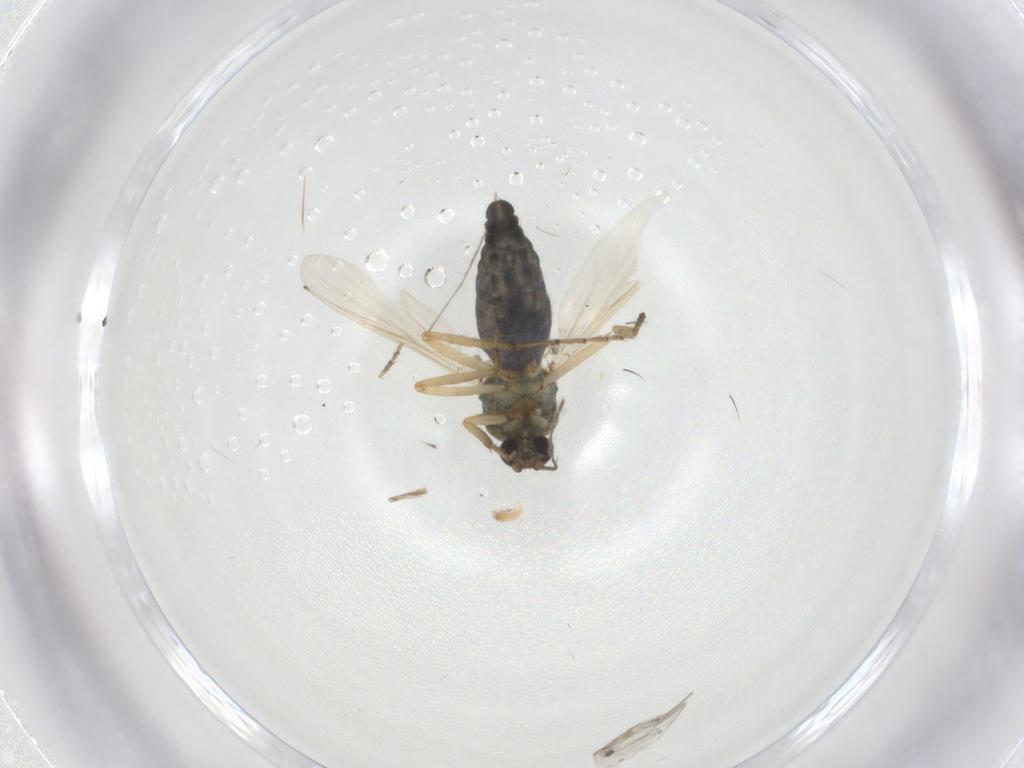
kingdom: Animalia
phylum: Arthropoda
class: Insecta
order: Diptera
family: Ceratopogonidae
